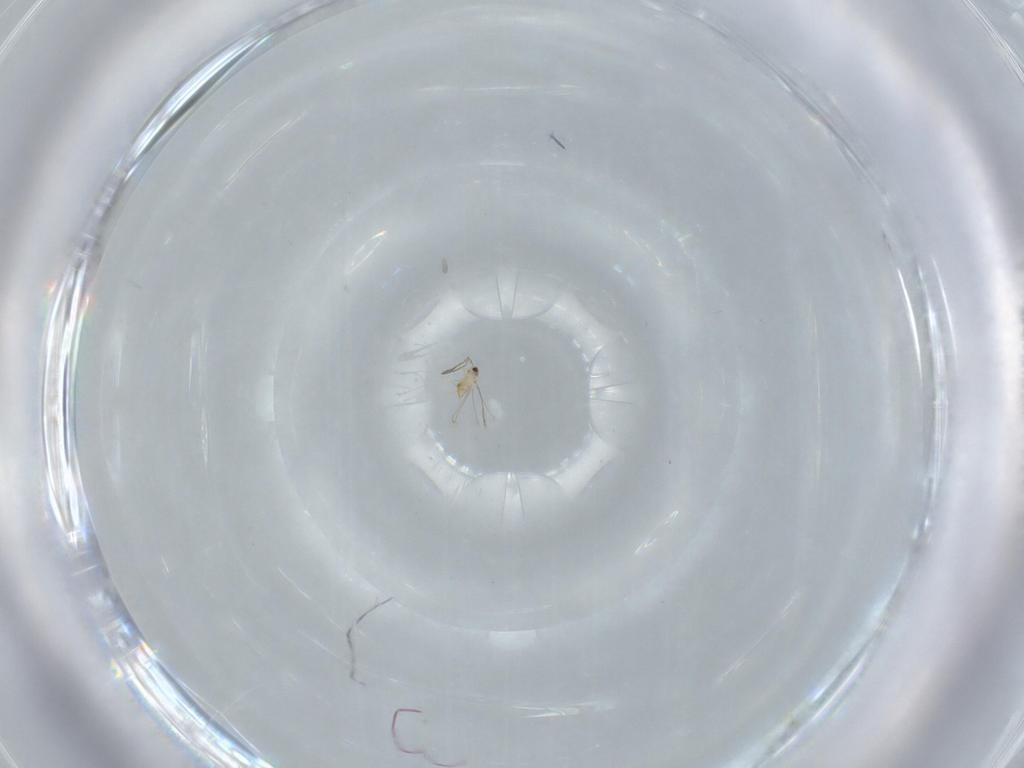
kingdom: Animalia
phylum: Arthropoda
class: Insecta
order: Hymenoptera
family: Mymaridae
